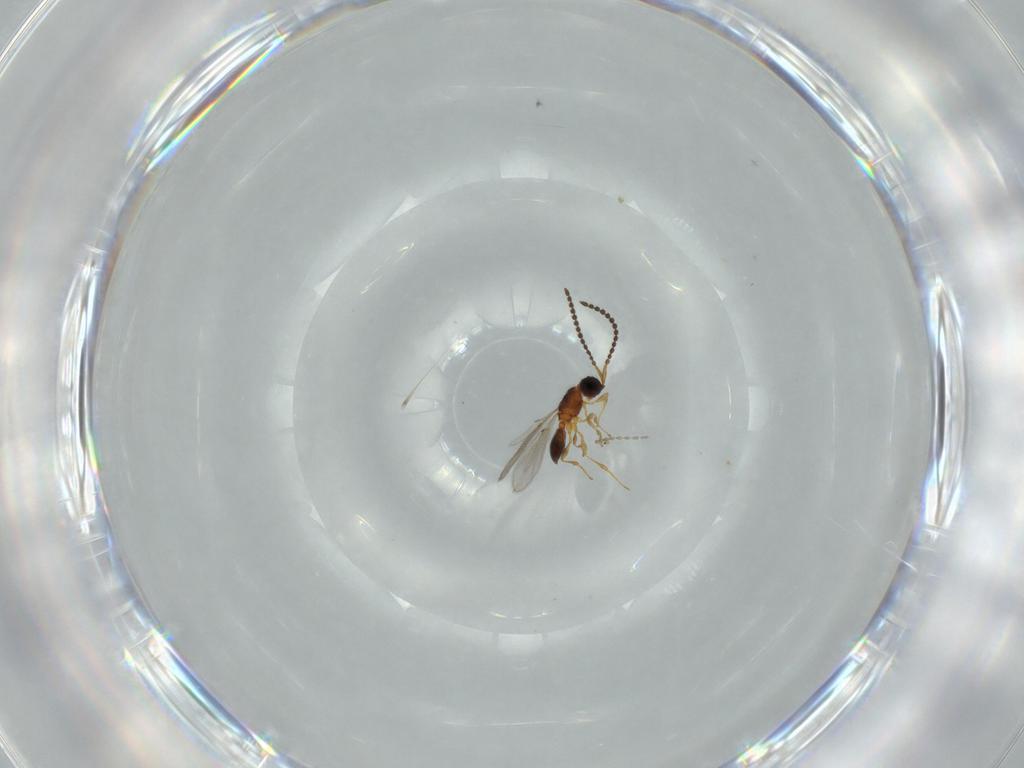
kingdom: Animalia
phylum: Arthropoda
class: Insecta
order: Hymenoptera
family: Diapriidae
